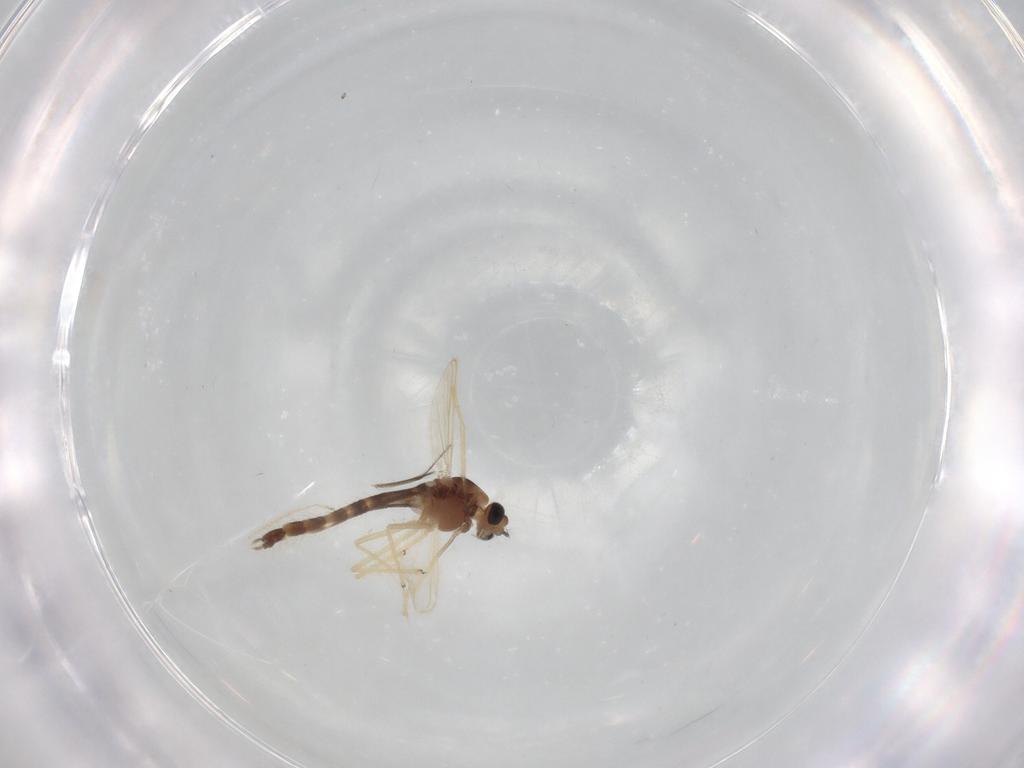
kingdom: Animalia
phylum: Arthropoda
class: Insecta
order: Diptera
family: Chironomidae
